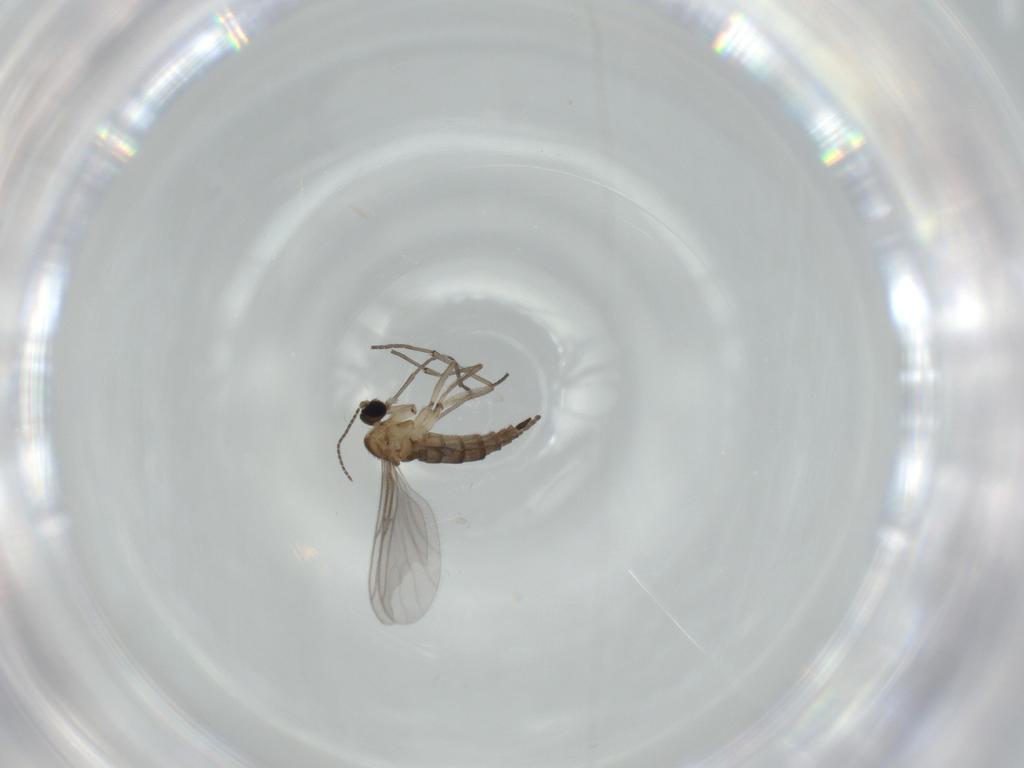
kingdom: Animalia
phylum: Arthropoda
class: Insecta
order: Diptera
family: Sciaridae
